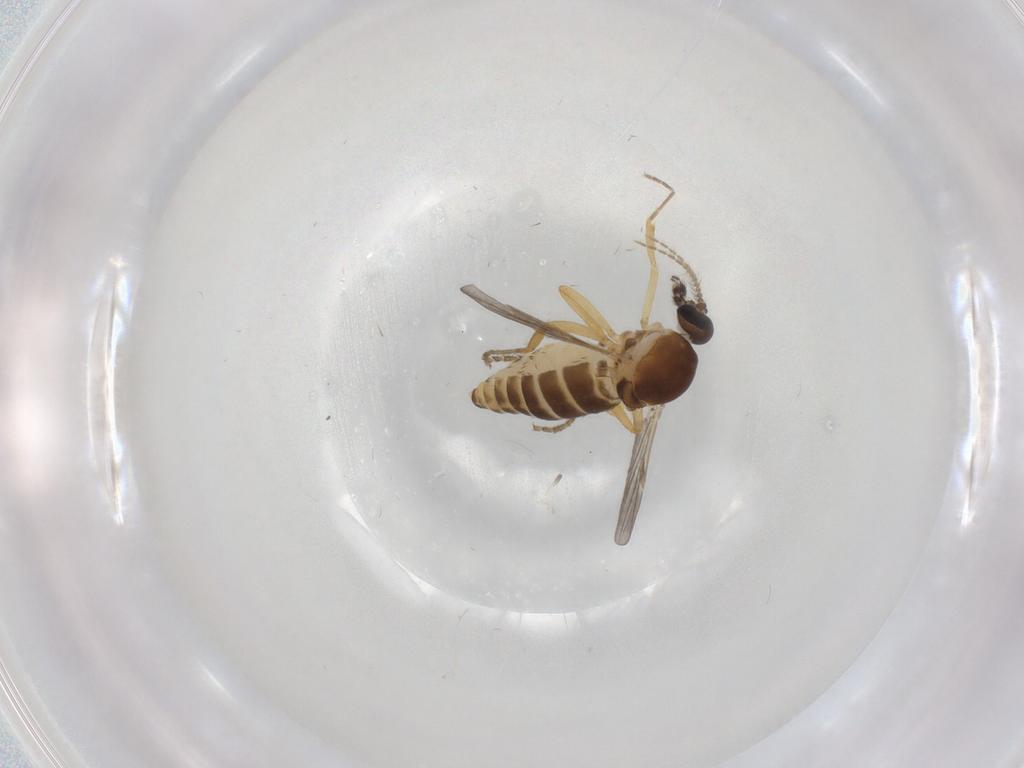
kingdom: Animalia
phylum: Arthropoda
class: Insecta
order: Diptera
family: Ceratopogonidae
